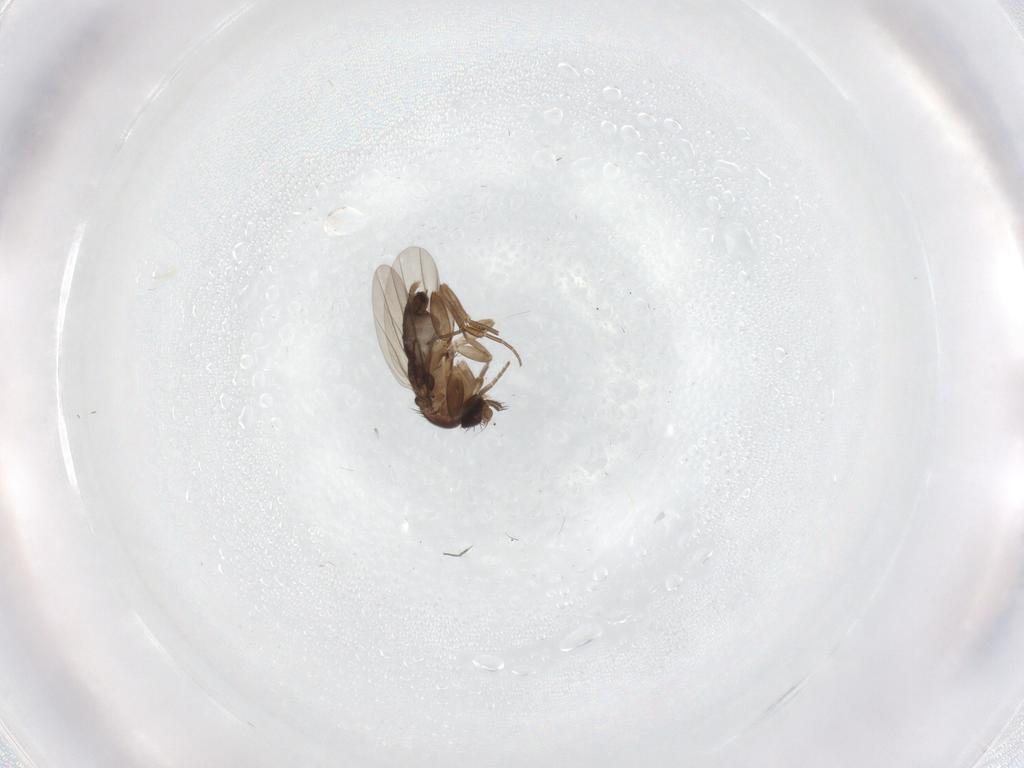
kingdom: Animalia
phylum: Arthropoda
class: Insecta
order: Diptera
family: Phoridae
